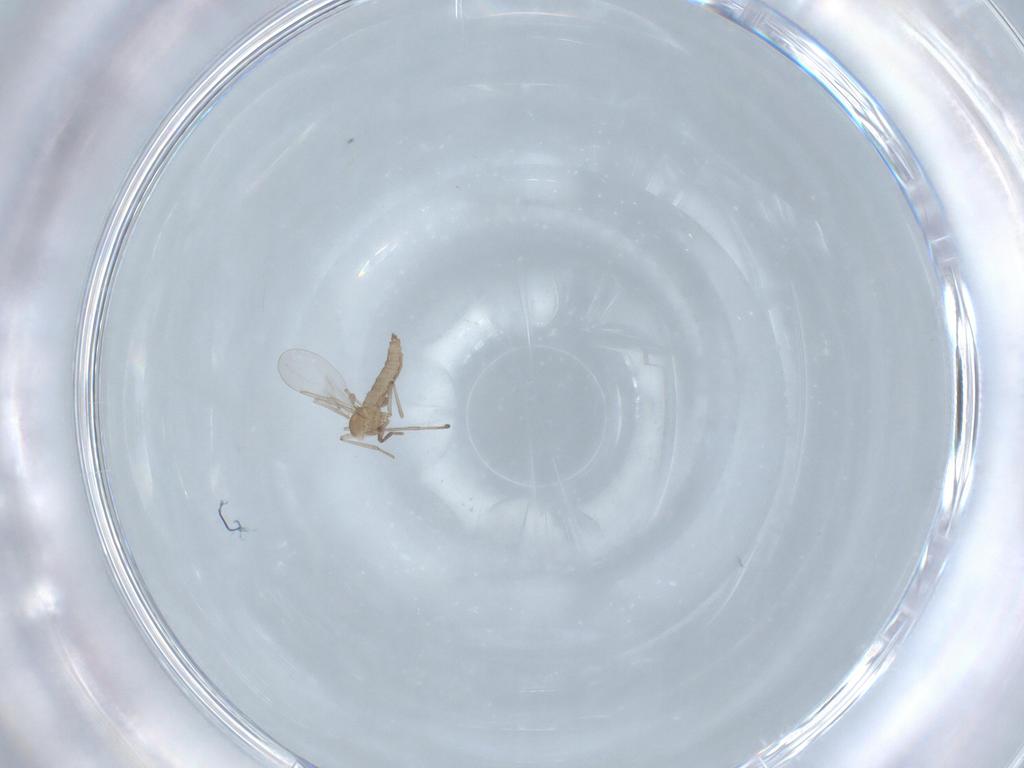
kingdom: Animalia
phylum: Arthropoda
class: Insecta
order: Diptera
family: Cecidomyiidae
